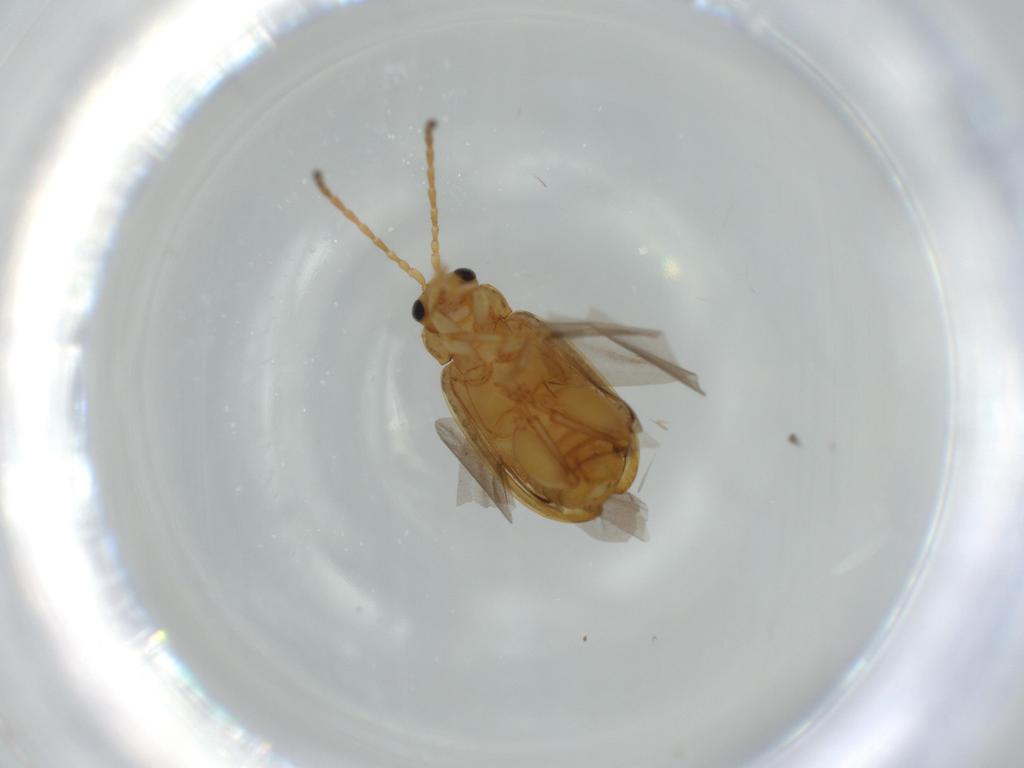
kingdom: Animalia
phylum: Arthropoda
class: Insecta
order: Coleoptera
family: Chrysomelidae
